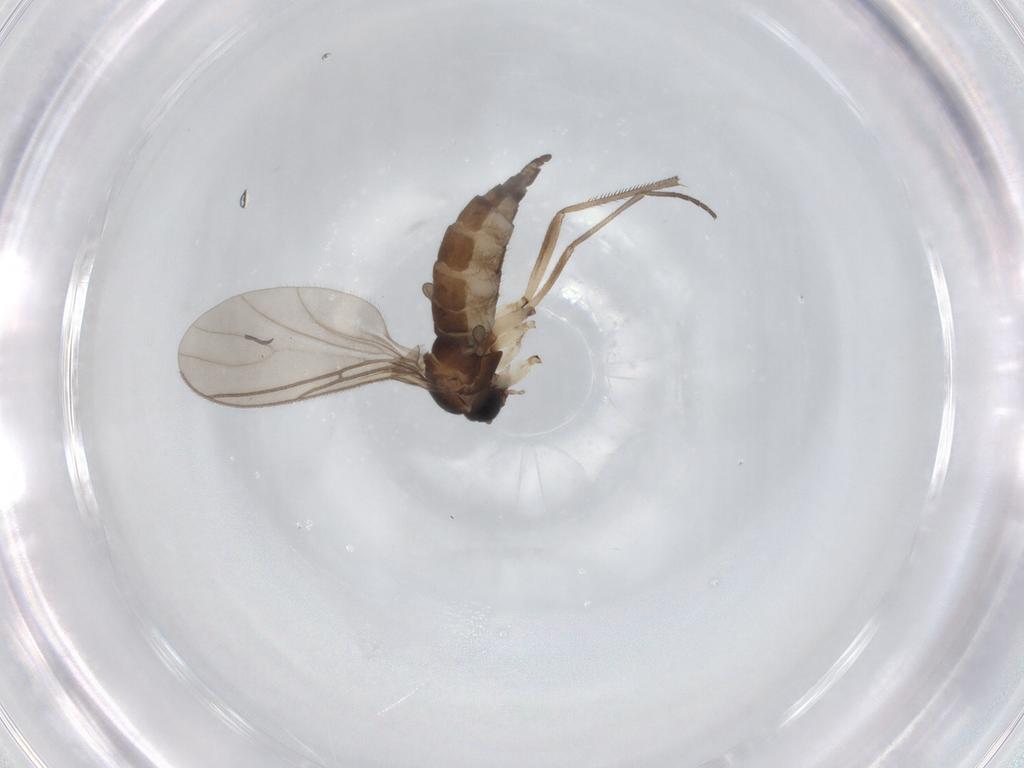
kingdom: Animalia
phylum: Arthropoda
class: Insecta
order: Diptera
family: Sciaridae
